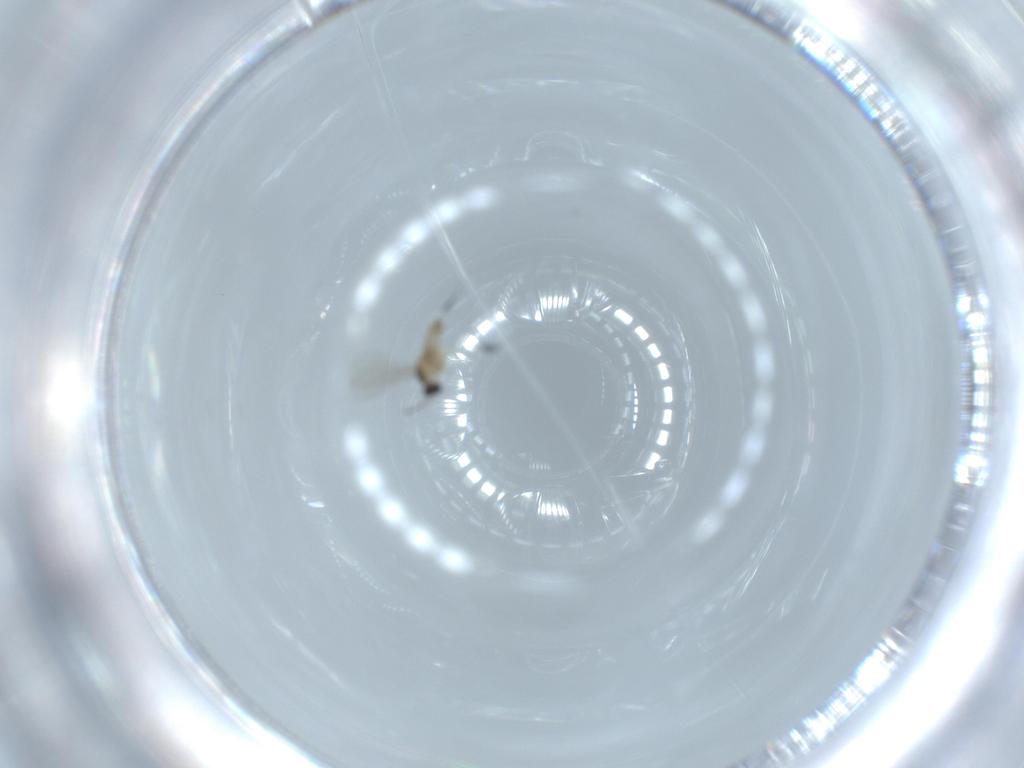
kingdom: Animalia
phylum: Arthropoda
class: Insecta
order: Diptera
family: Cecidomyiidae
